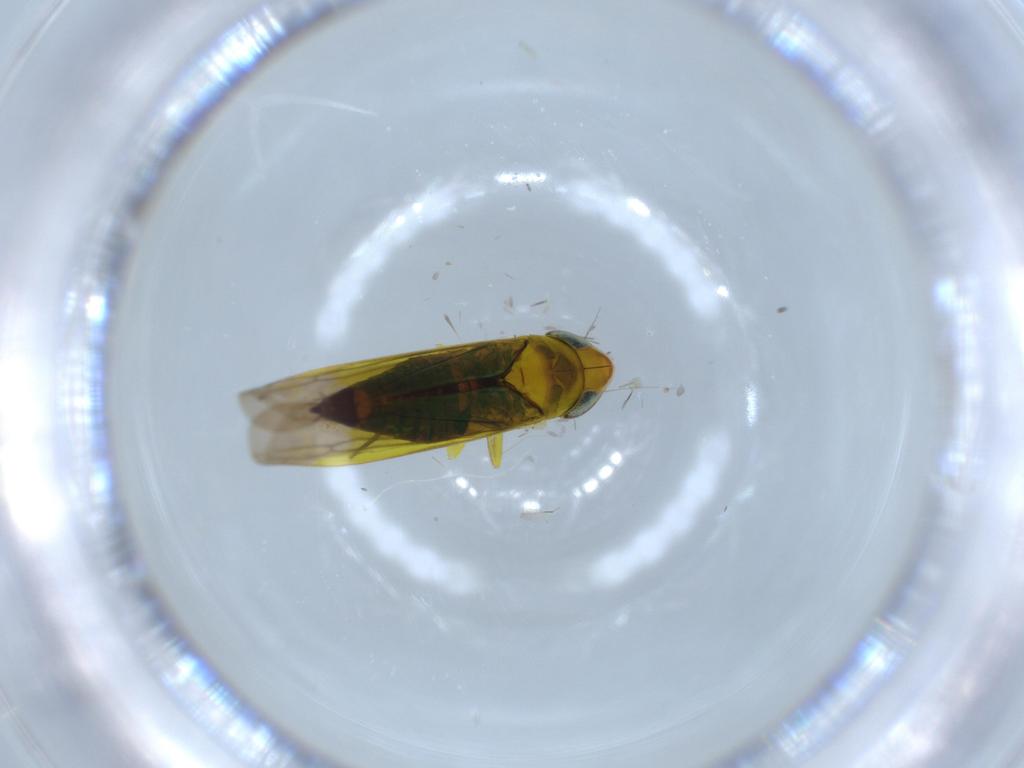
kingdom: Animalia
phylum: Arthropoda
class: Insecta
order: Hemiptera
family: Cicadellidae
